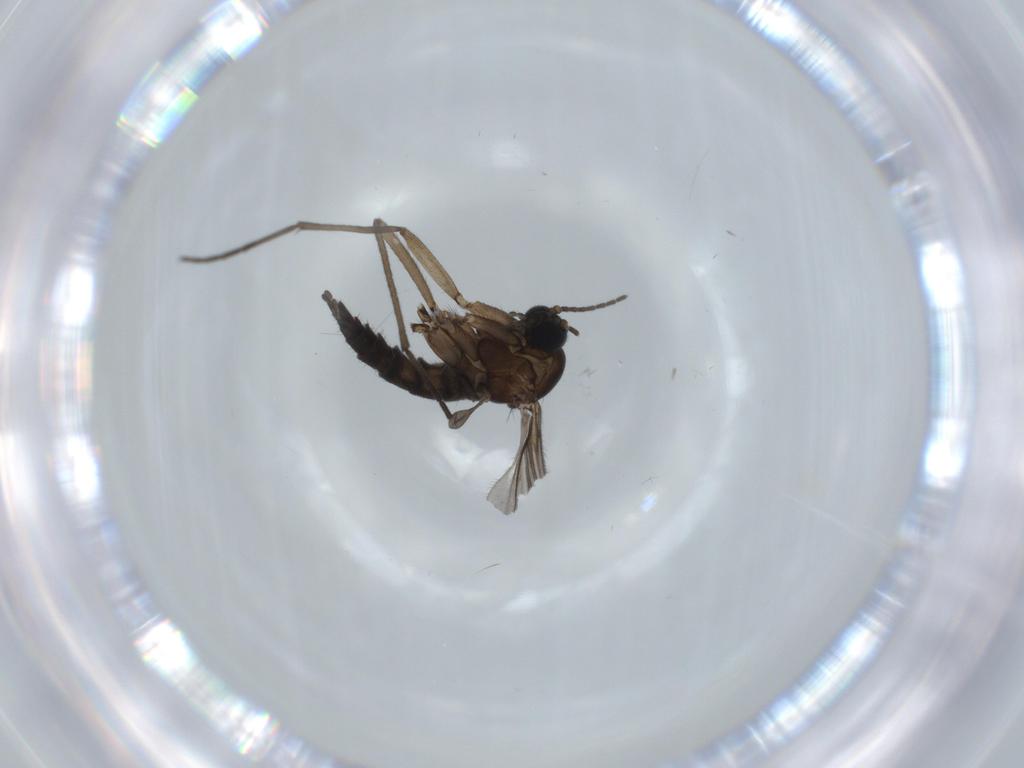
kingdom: Animalia
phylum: Arthropoda
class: Insecta
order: Diptera
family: Sciaridae
